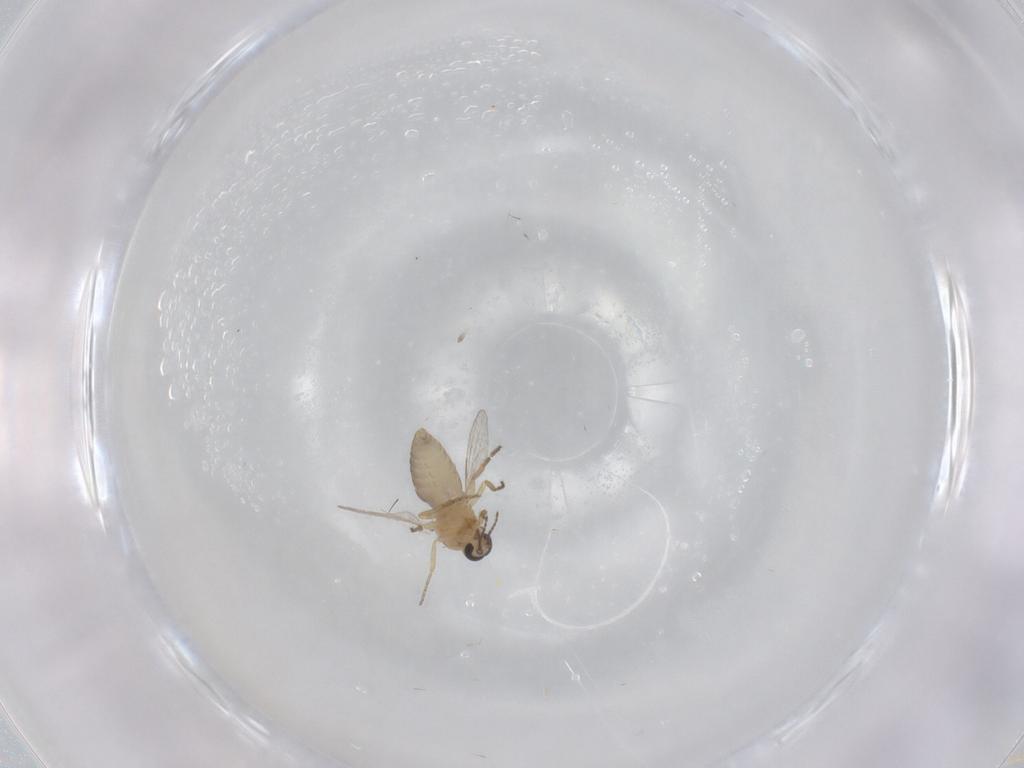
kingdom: Animalia
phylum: Arthropoda
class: Insecta
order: Diptera
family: Ceratopogonidae
